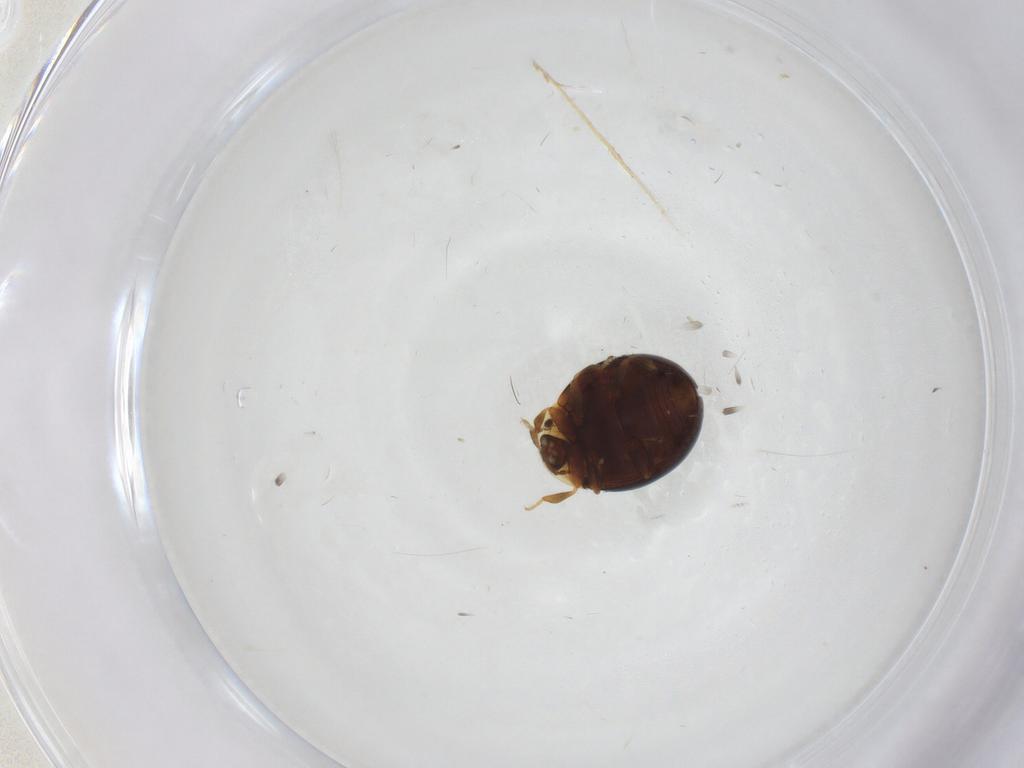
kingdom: Animalia
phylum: Arthropoda
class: Insecta
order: Coleoptera
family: Corylophidae
